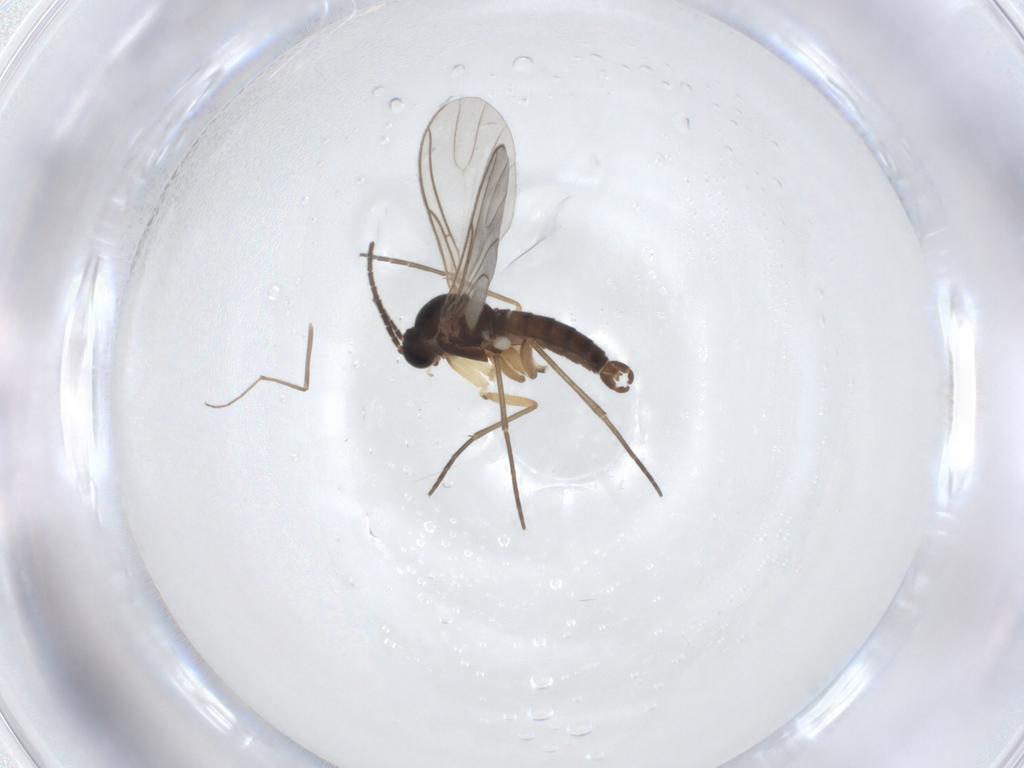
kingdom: Animalia
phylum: Arthropoda
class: Insecta
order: Diptera
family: Sciaridae
